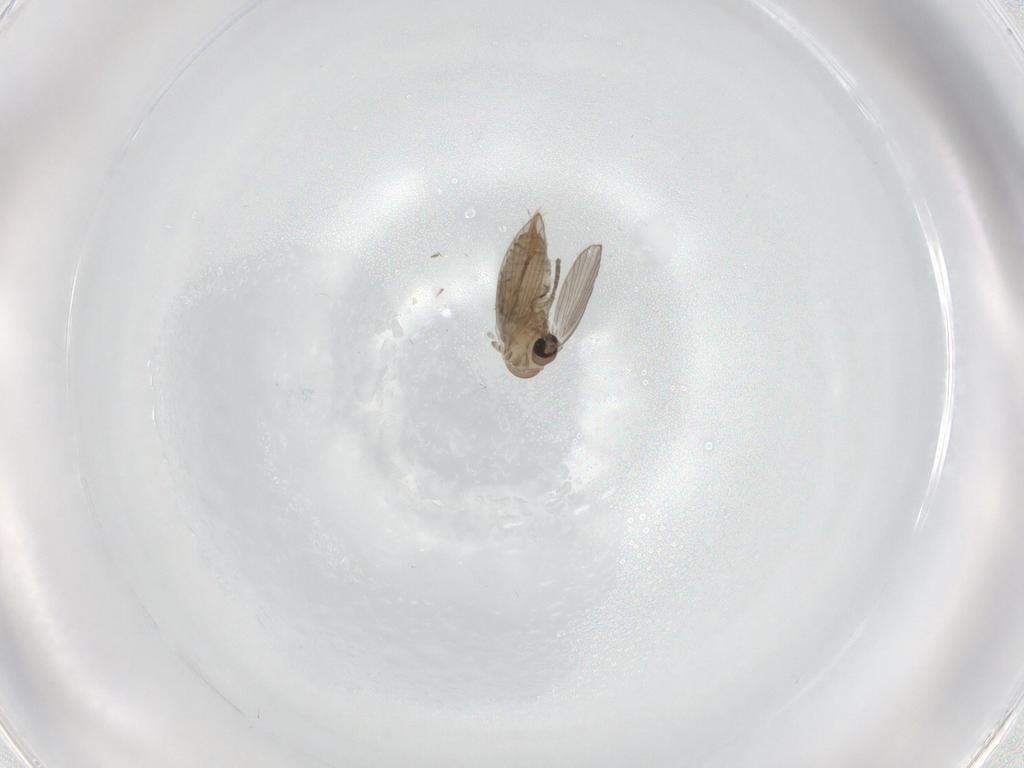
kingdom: Animalia
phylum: Arthropoda
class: Insecta
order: Diptera
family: Psychodidae
